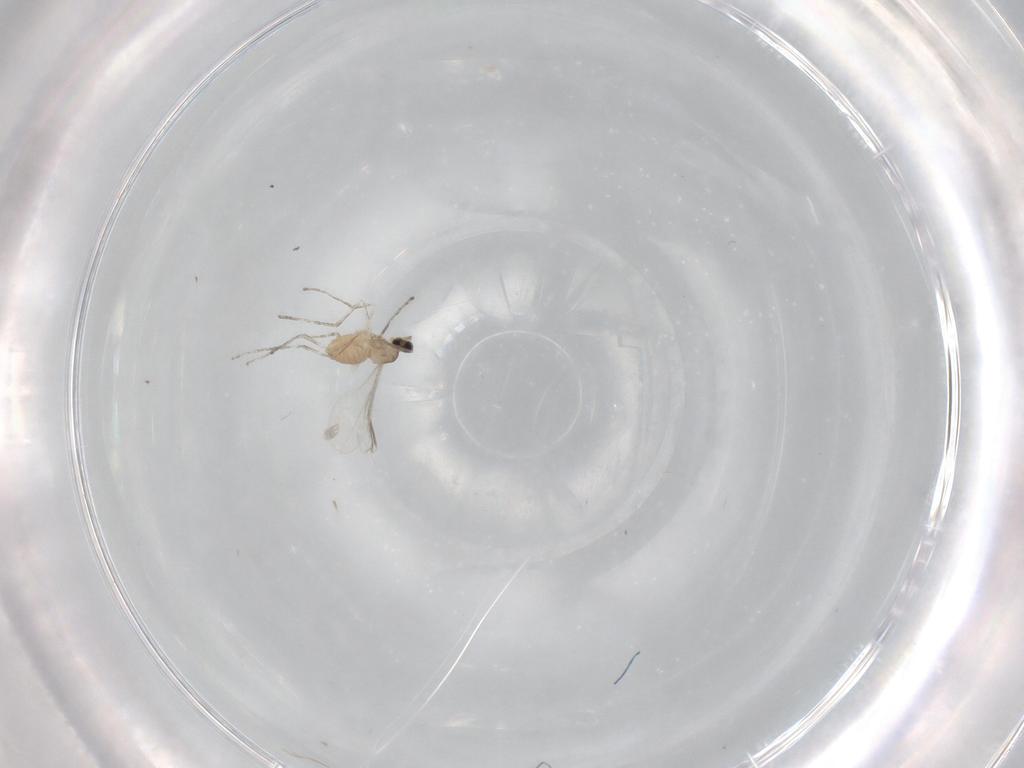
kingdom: Animalia
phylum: Arthropoda
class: Insecta
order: Diptera
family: Cecidomyiidae
